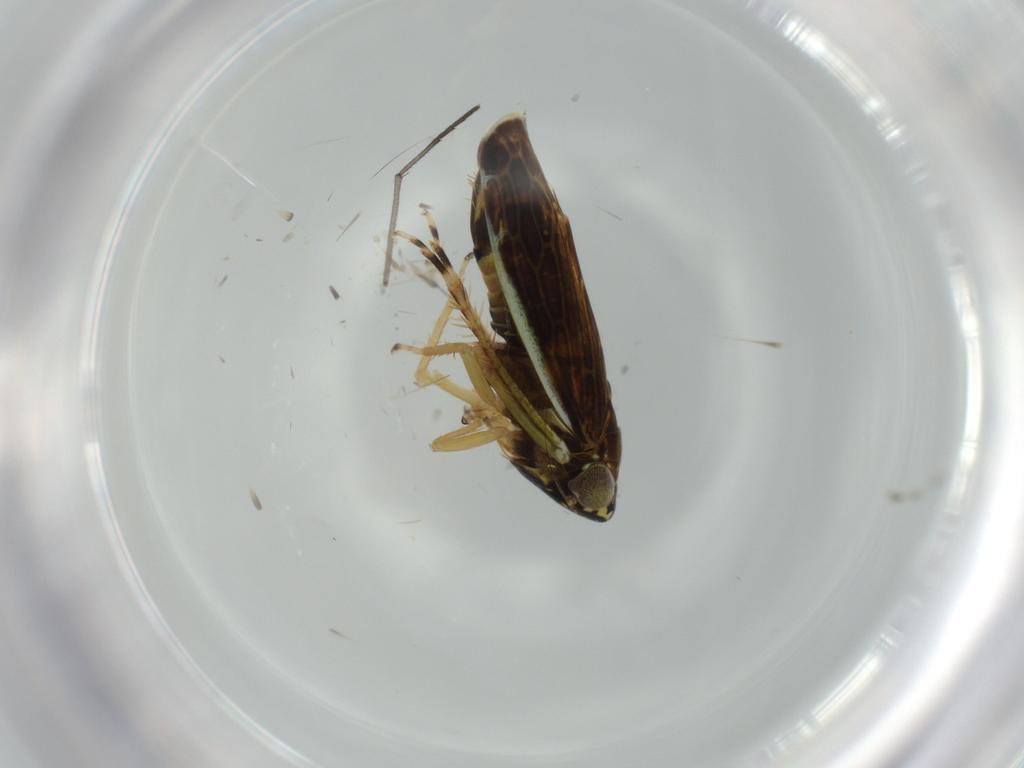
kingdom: Animalia
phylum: Arthropoda
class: Insecta
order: Hemiptera
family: Cicadellidae
